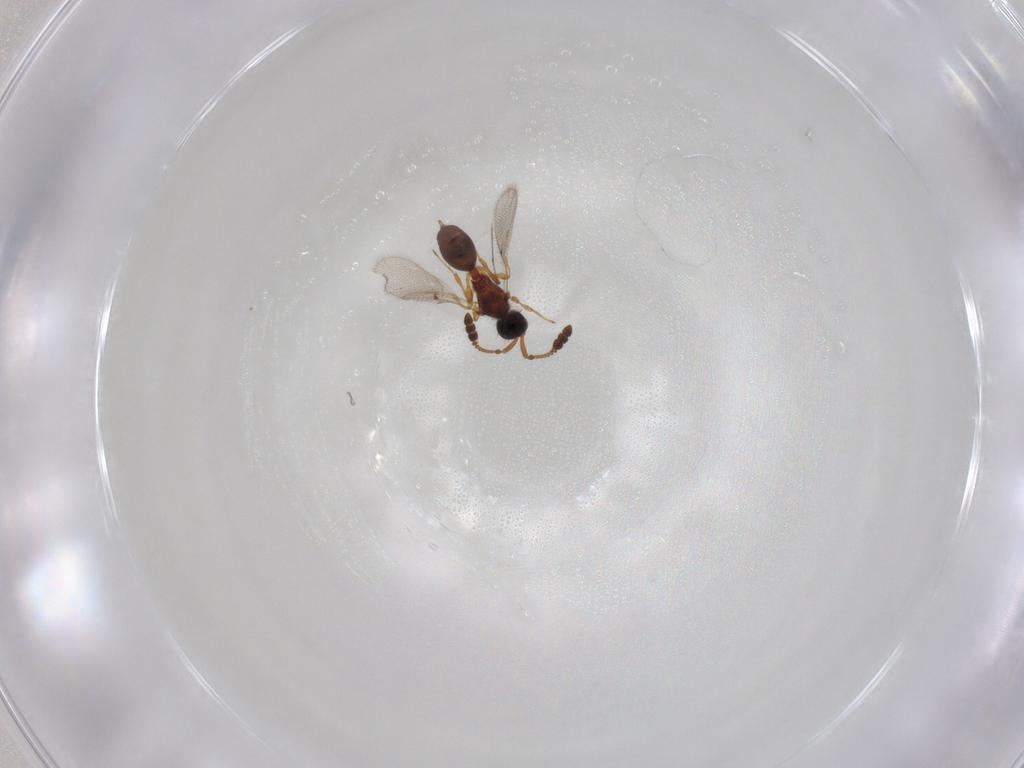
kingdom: Animalia
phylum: Arthropoda
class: Insecta
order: Hymenoptera
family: Diapriidae
